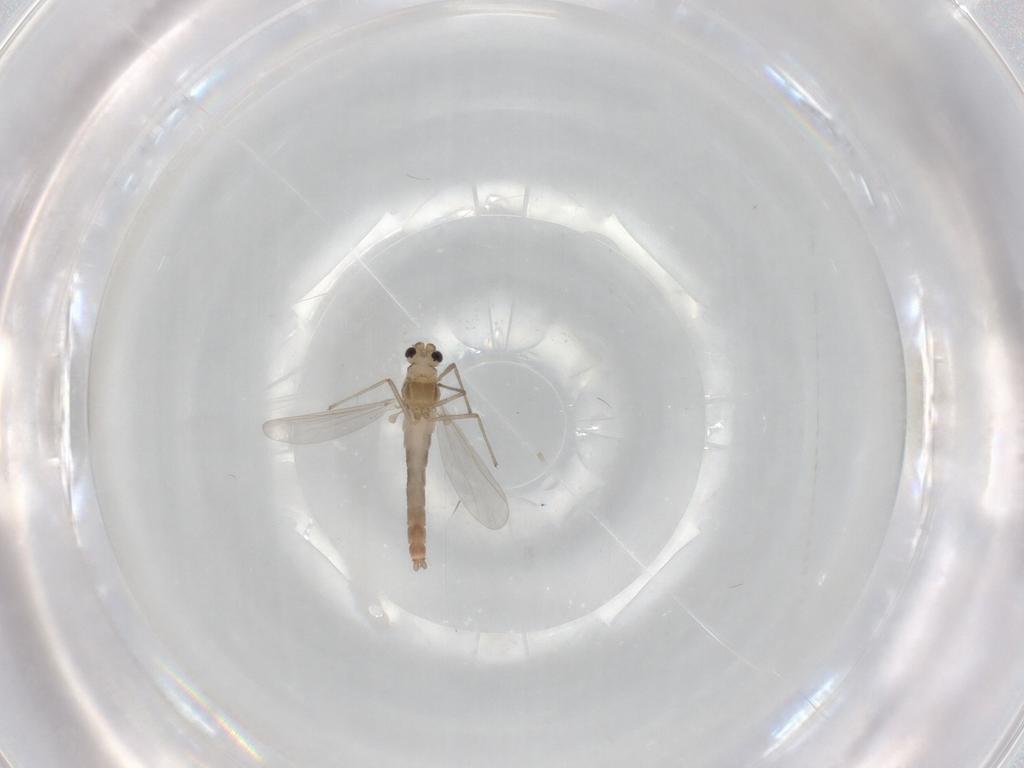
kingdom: Animalia
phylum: Arthropoda
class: Insecta
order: Diptera
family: Chironomidae
